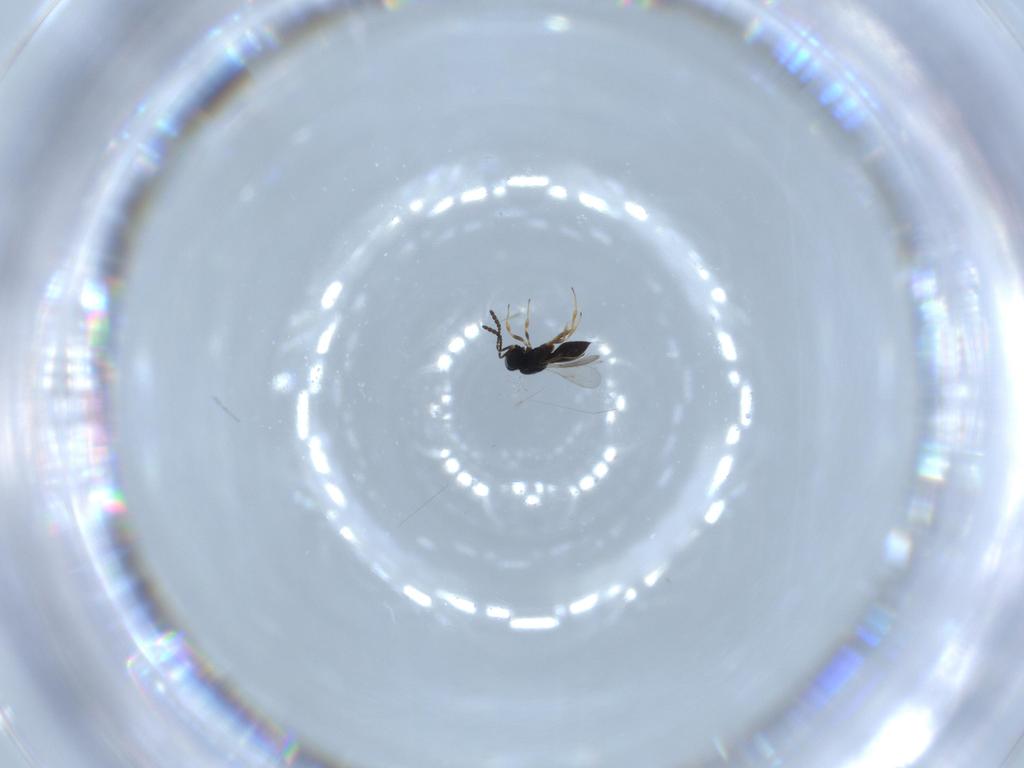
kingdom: Animalia
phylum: Arthropoda
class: Insecta
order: Hymenoptera
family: Scelionidae
